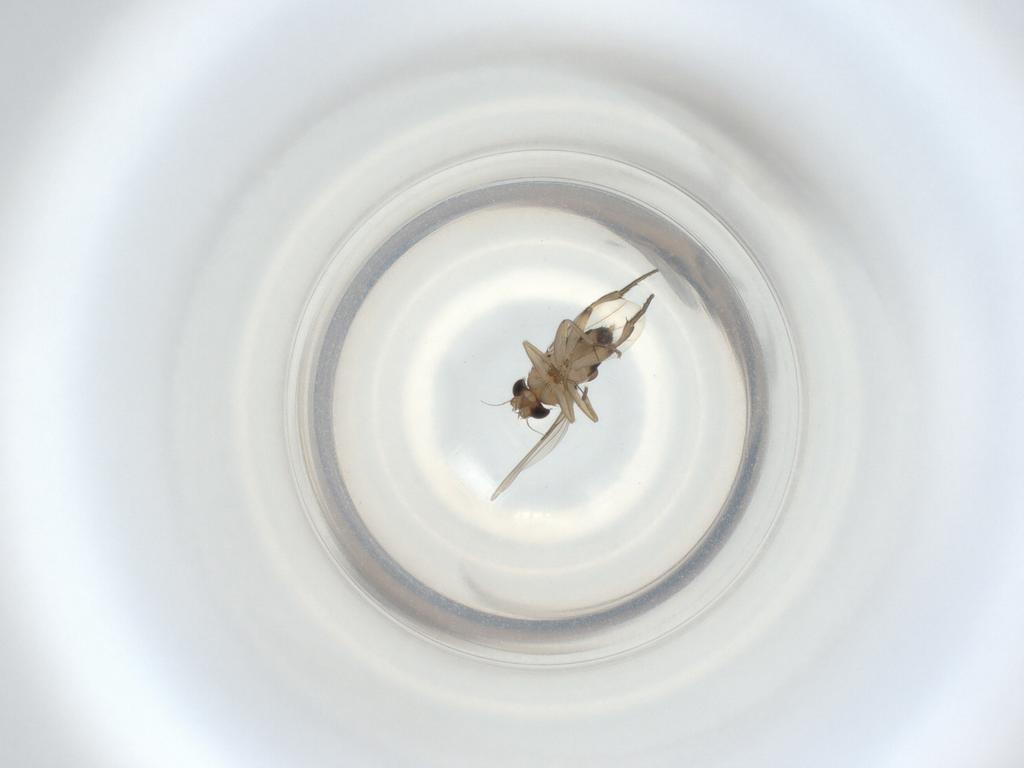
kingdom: Animalia
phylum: Arthropoda
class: Insecta
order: Diptera
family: Phoridae
